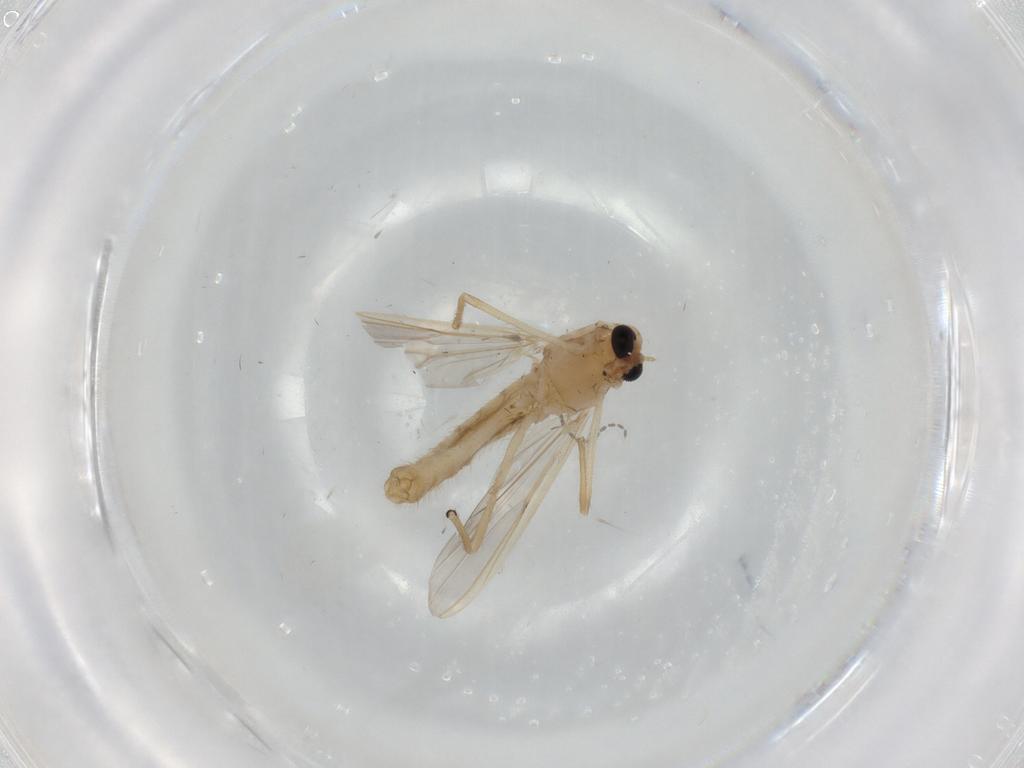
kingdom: Animalia
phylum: Arthropoda
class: Insecta
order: Diptera
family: Chironomidae
